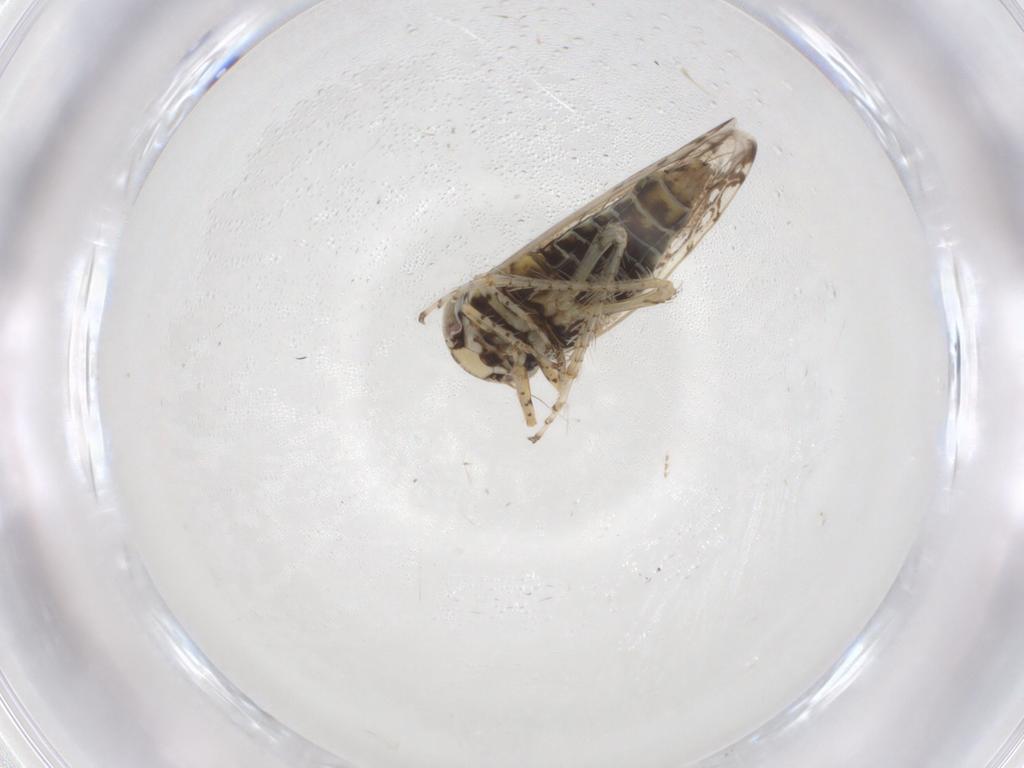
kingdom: Animalia
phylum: Arthropoda
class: Insecta
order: Hemiptera
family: Cicadellidae
